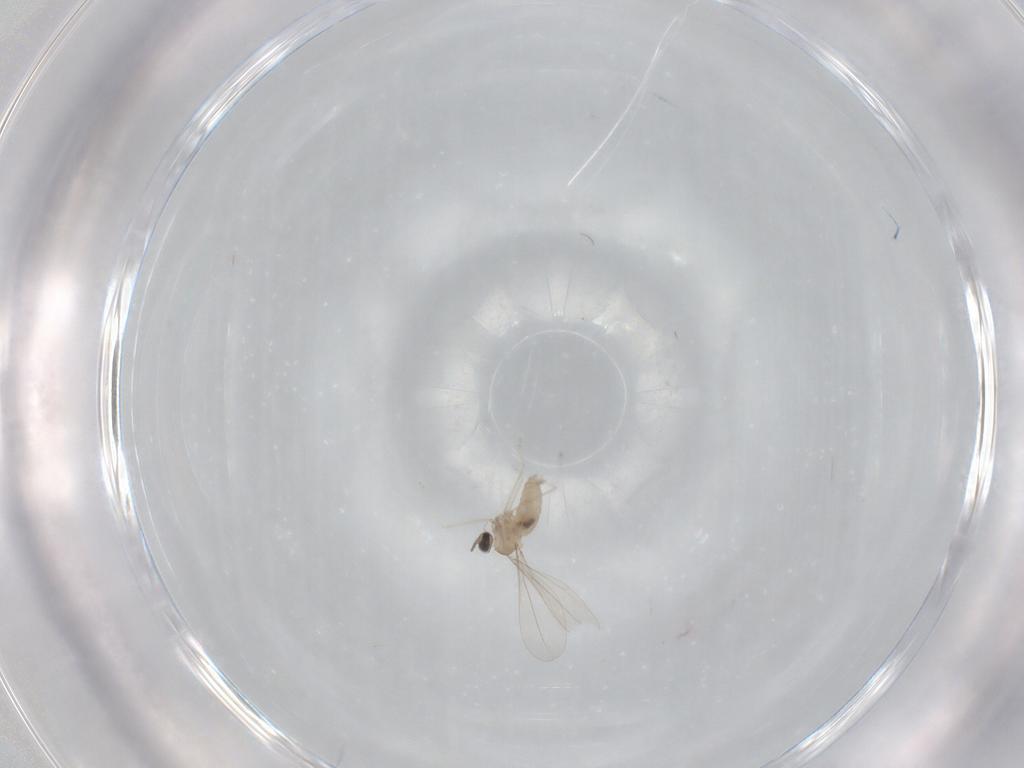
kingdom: Animalia
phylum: Arthropoda
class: Insecta
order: Diptera
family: Cecidomyiidae
